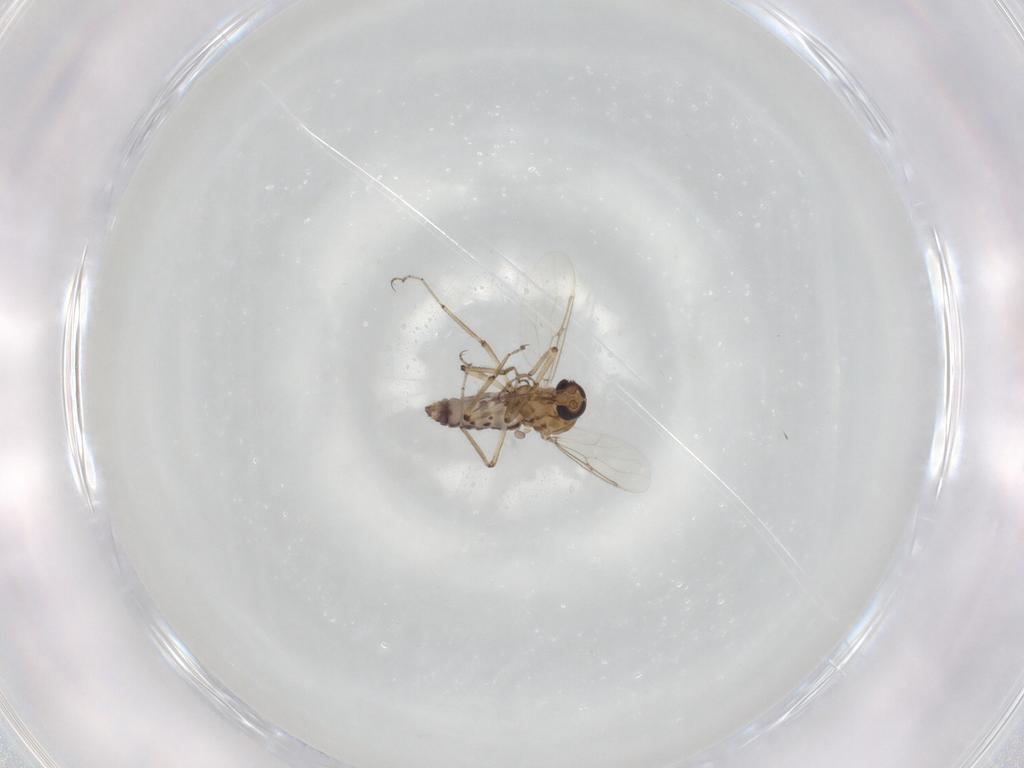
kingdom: Animalia
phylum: Arthropoda
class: Insecta
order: Diptera
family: Ceratopogonidae
